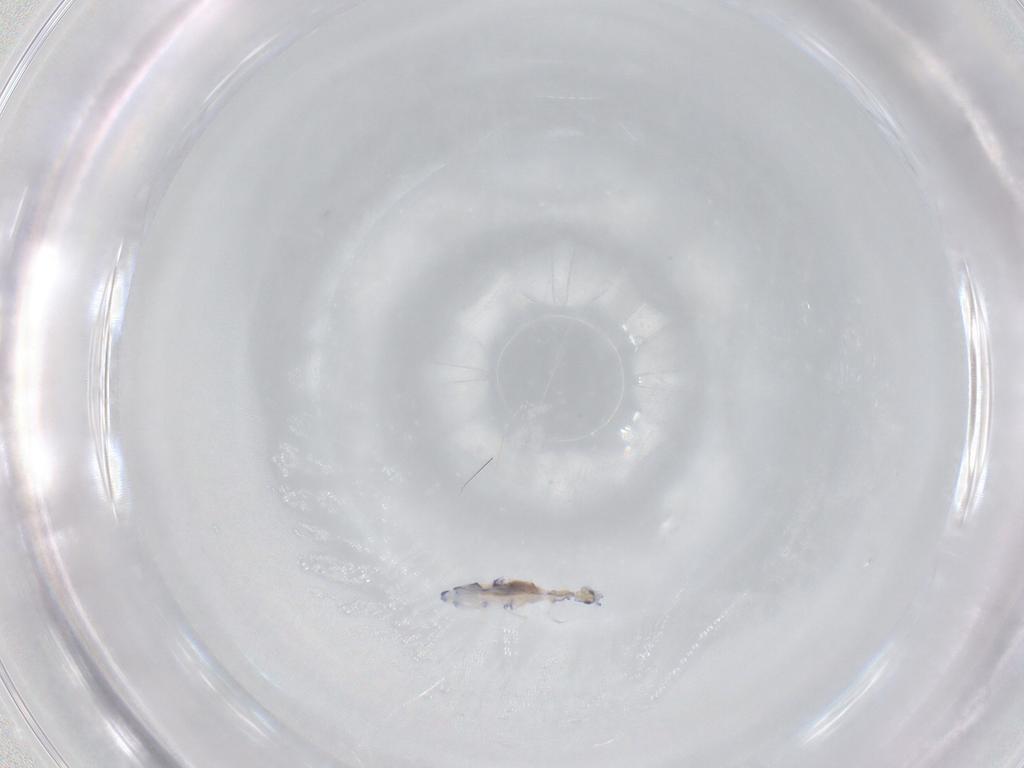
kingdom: Animalia
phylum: Arthropoda
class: Collembola
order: Entomobryomorpha
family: Entomobryidae
